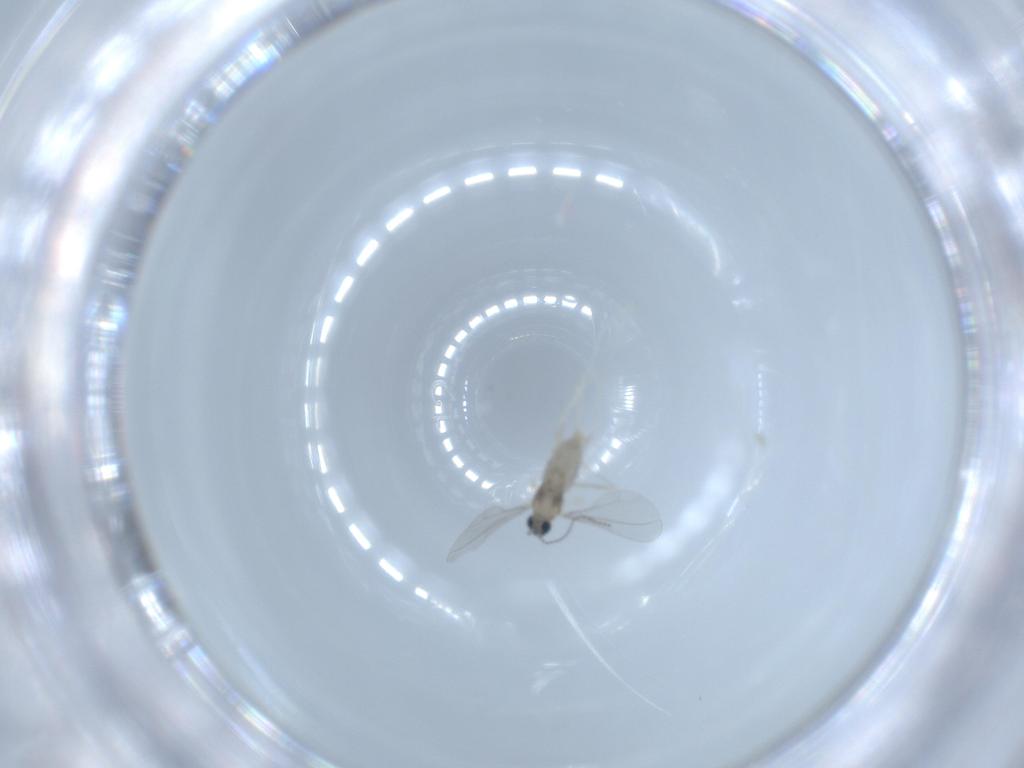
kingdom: Animalia
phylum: Arthropoda
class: Insecta
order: Diptera
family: Cecidomyiidae
